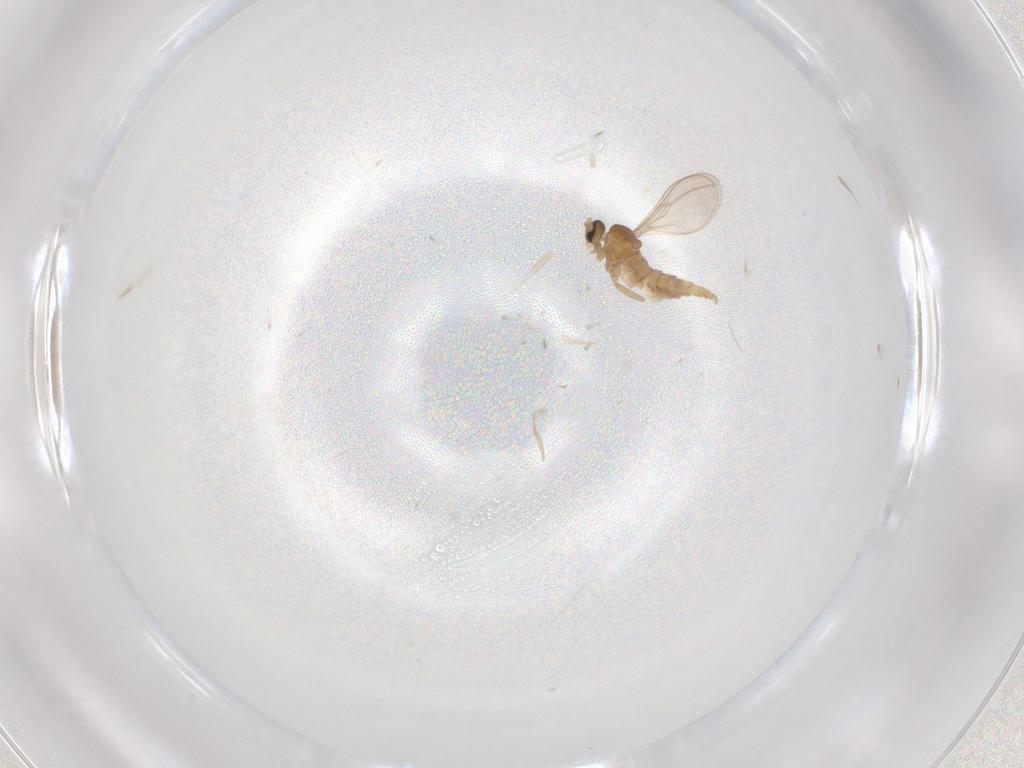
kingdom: Animalia
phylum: Arthropoda
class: Insecta
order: Diptera
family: Cecidomyiidae
